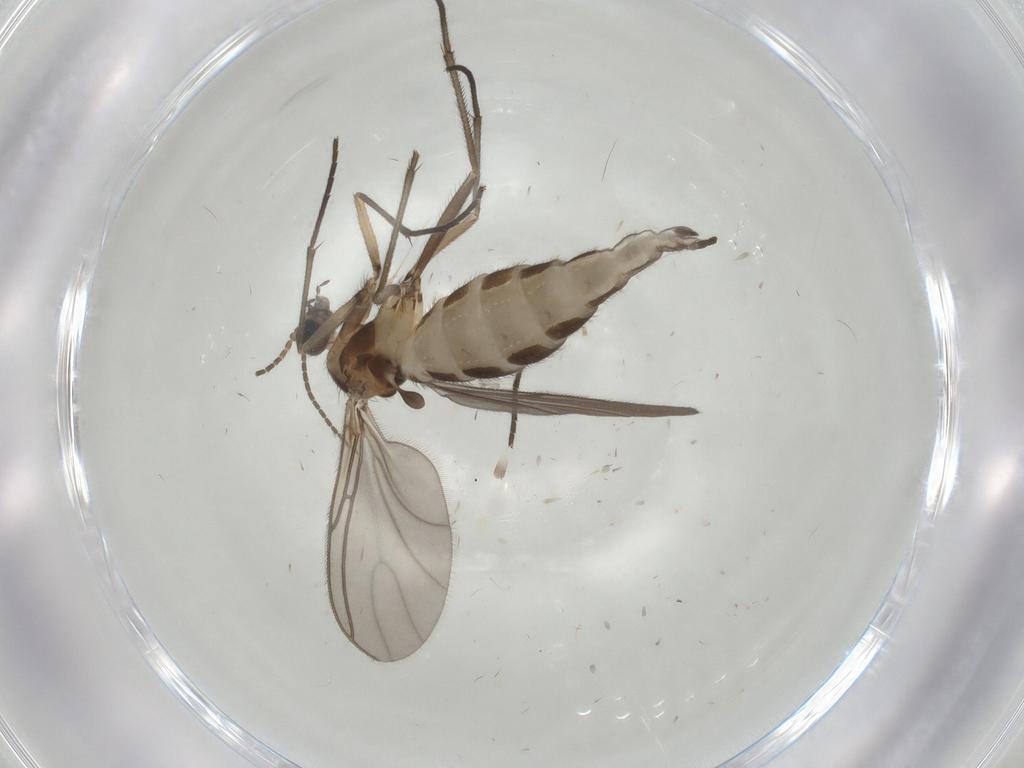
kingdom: Animalia
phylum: Arthropoda
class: Insecta
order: Diptera
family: Sciaridae
